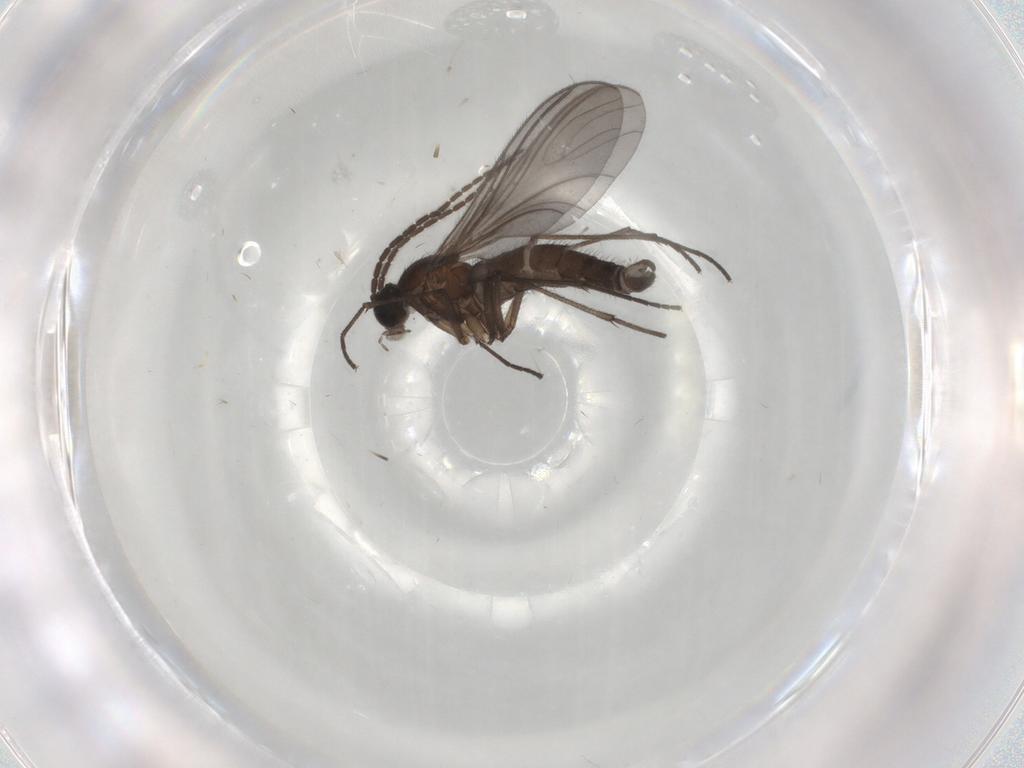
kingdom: Animalia
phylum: Arthropoda
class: Insecta
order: Diptera
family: Sciaridae
